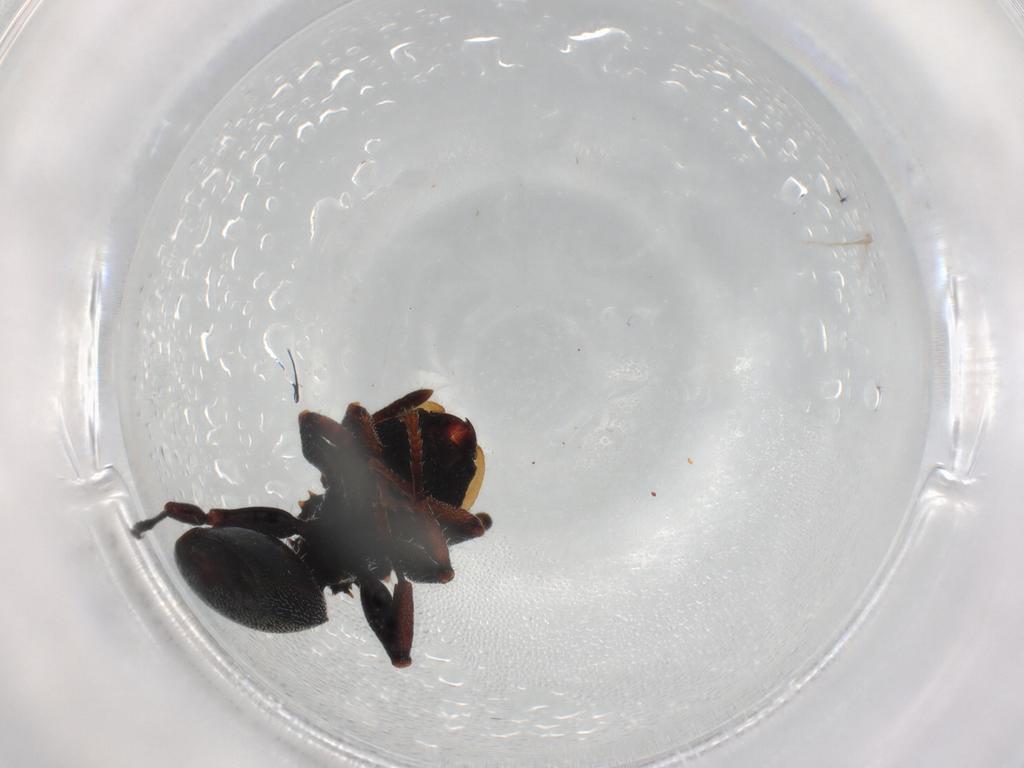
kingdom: Animalia
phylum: Arthropoda
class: Insecta
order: Hymenoptera
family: Formicidae
